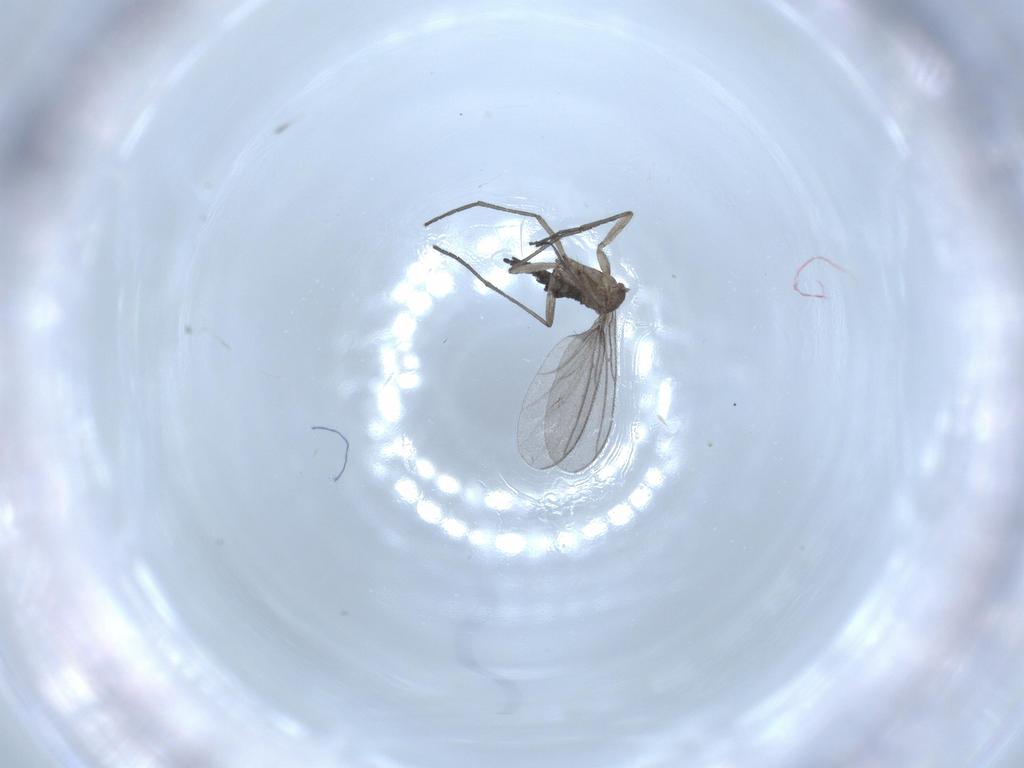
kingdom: Animalia
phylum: Arthropoda
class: Insecta
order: Diptera
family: Sciaridae
